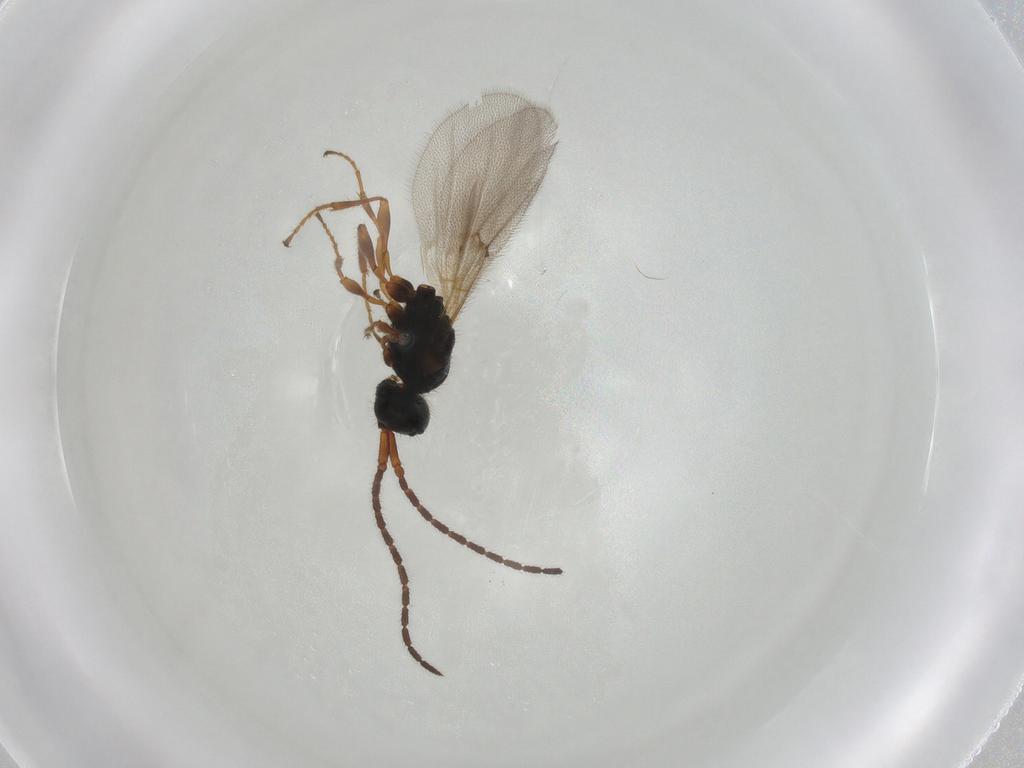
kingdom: Animalia
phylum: Arthropoda
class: Insecta
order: Hymenoptera
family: Diapriidae
